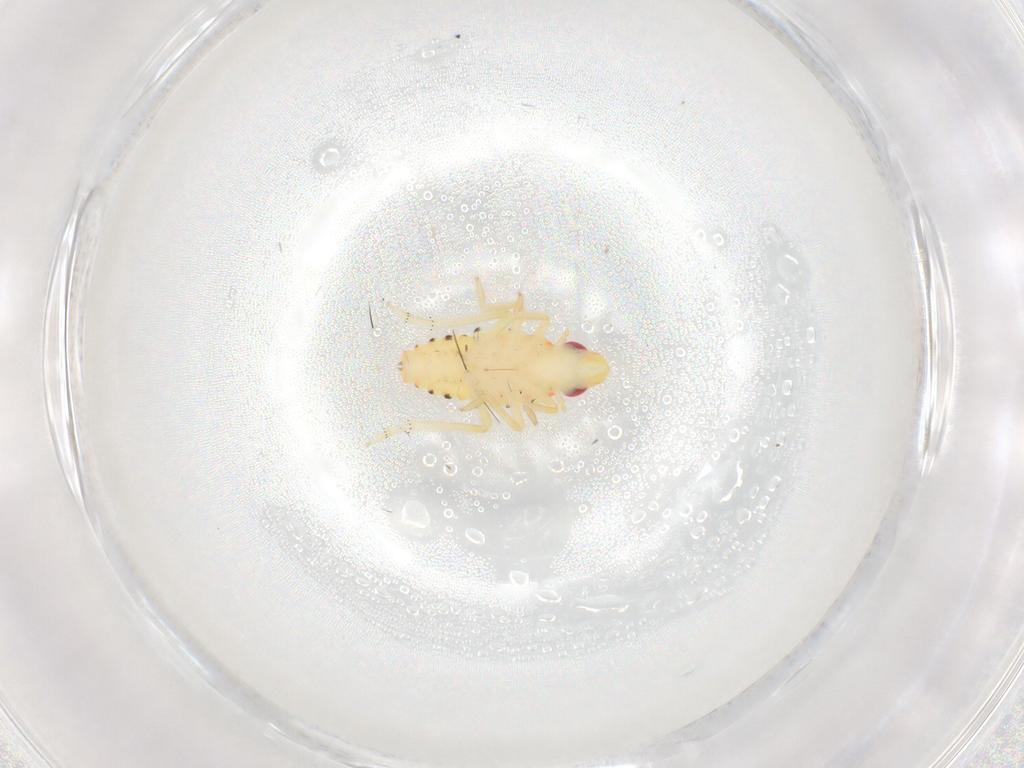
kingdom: Animalia
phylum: Arthropoda
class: Insecta
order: Hemiptera
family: Tropiduchidae
